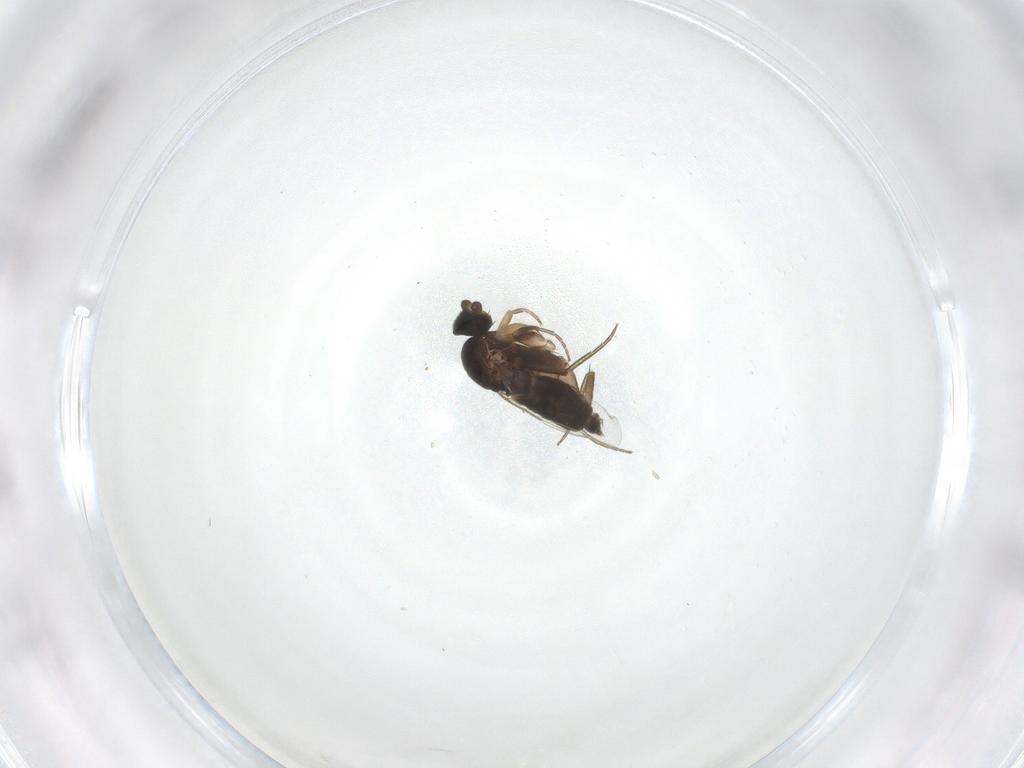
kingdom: Animalia
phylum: Arthropoda
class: Insecta
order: Diptera
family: Phoridae
